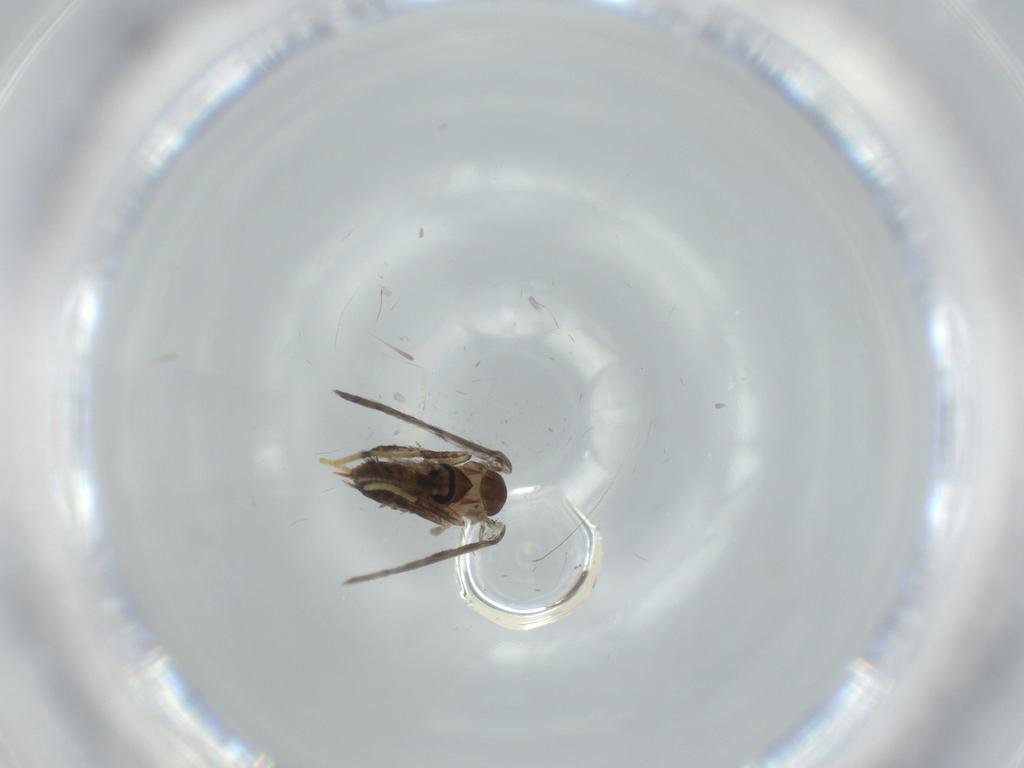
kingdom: Animalia
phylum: Arthropoda
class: Insecta
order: Diptera
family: Psychodidae
